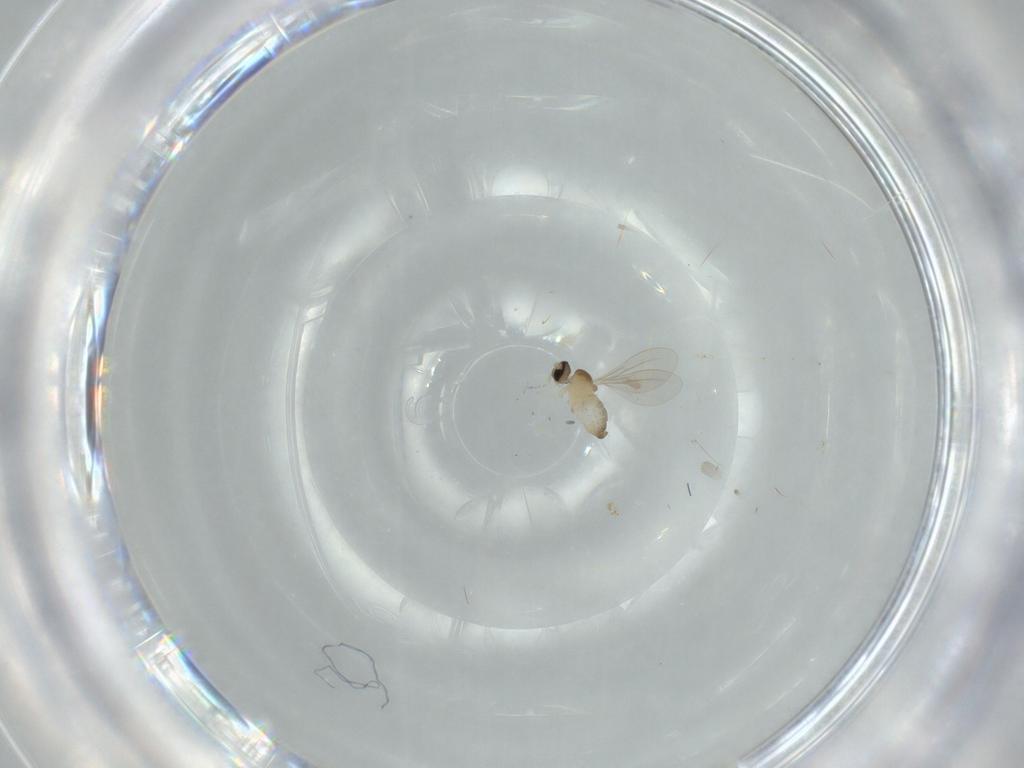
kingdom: Animalia
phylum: Arthropoda
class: Insecta
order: Diptera
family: Cecidomyiidae
